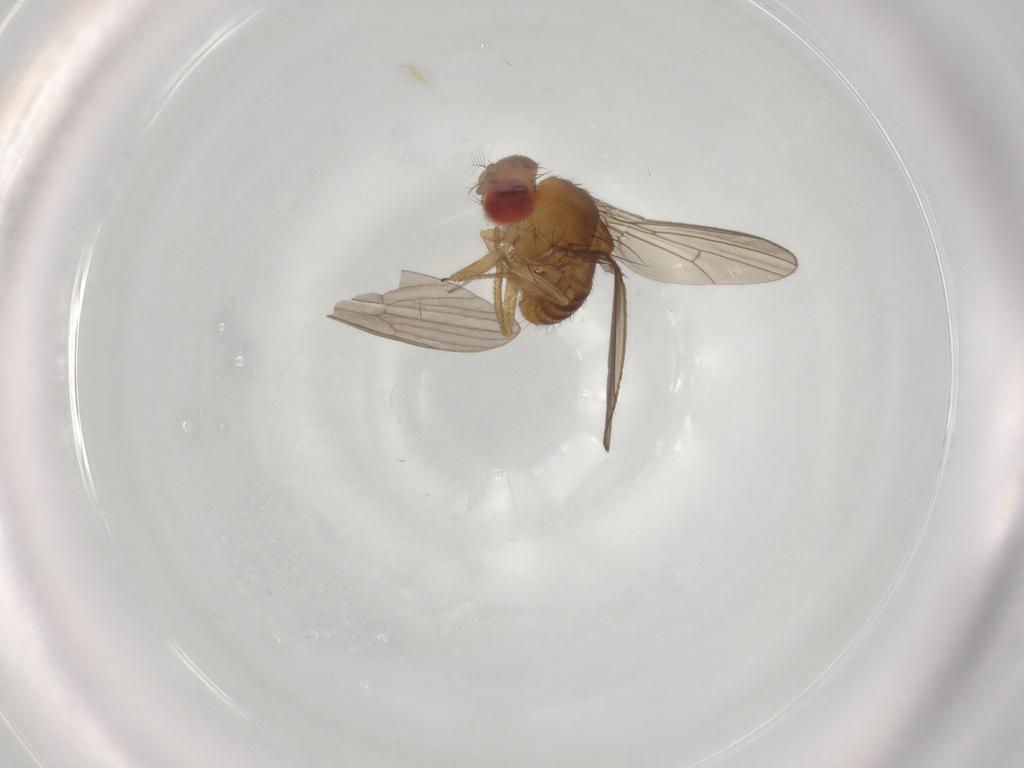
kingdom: Animalia
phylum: Arthropoda
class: Insecta
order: Diptera
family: Drosophilidae
